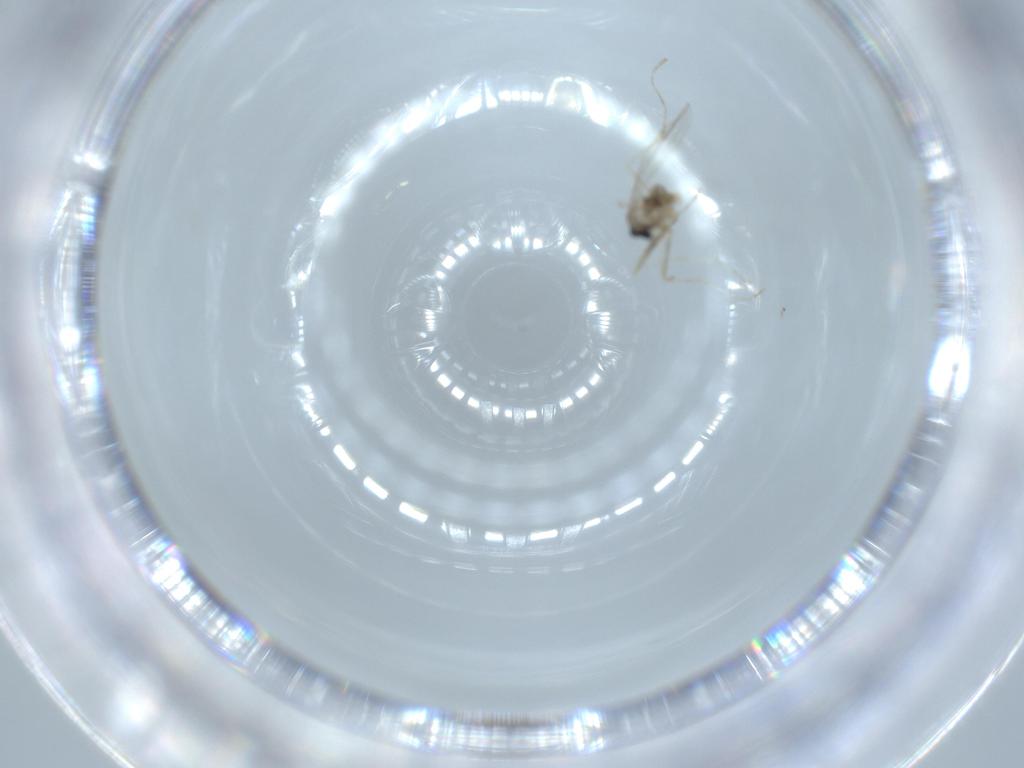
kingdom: Animalia
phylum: Arthropoda
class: Insecta
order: Diptera
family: Cecidomyiidae
